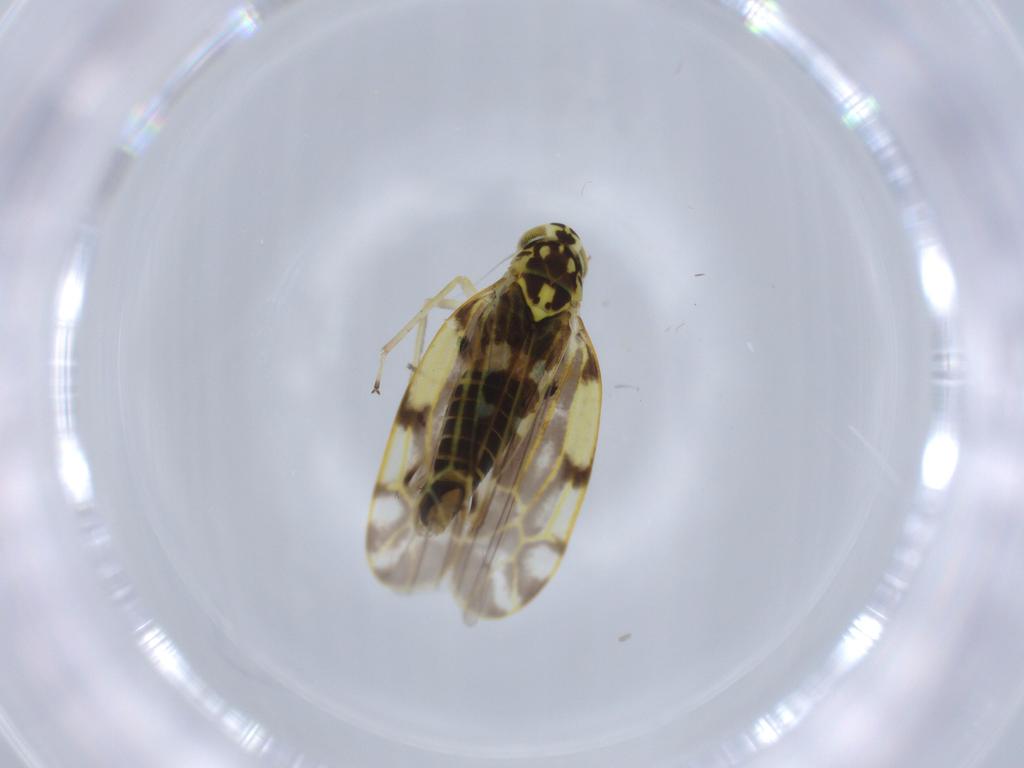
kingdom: Animalia
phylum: Arthropoda
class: Insecta
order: Hemiptera
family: Cicadellidae
